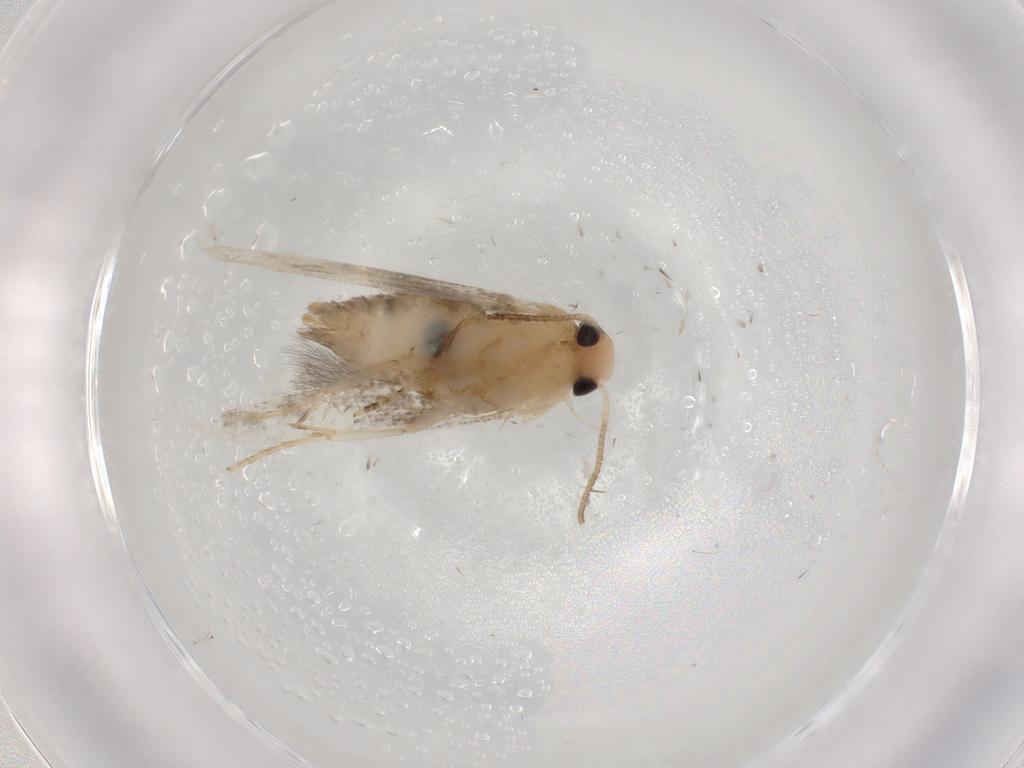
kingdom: Animalia
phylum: Arthropoda
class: Insecta
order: Lepidoptera
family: Cosmopterigidae
